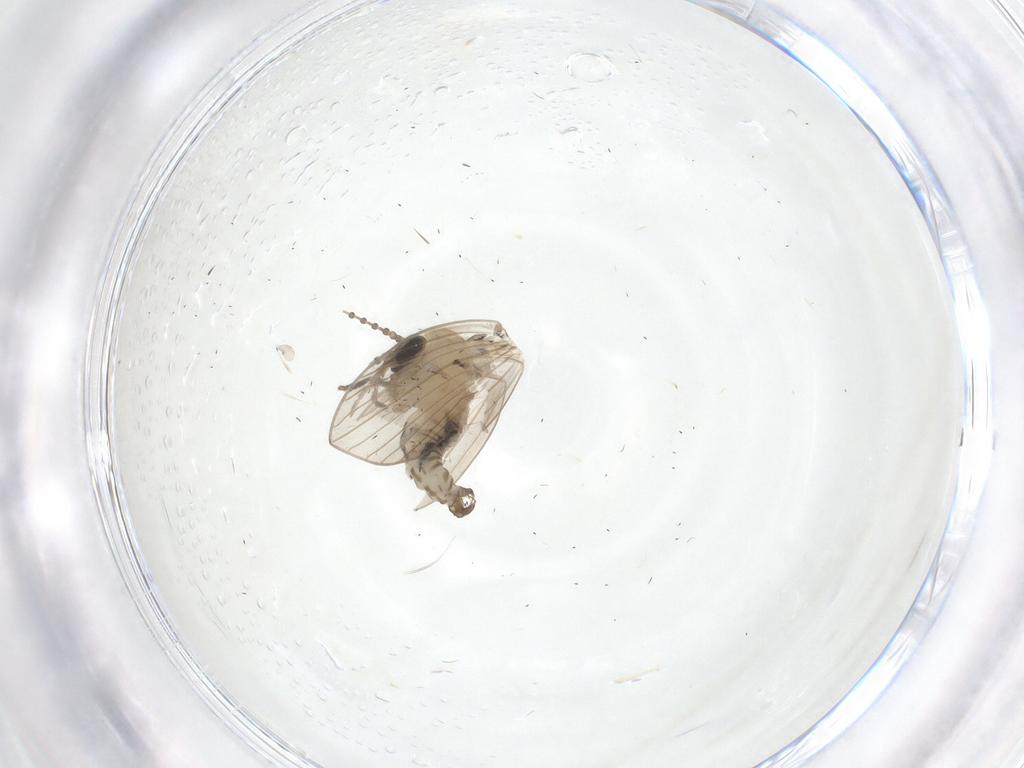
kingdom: Animalia
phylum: Arthropoda
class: Insecta
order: Diptera
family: Psychodidae
